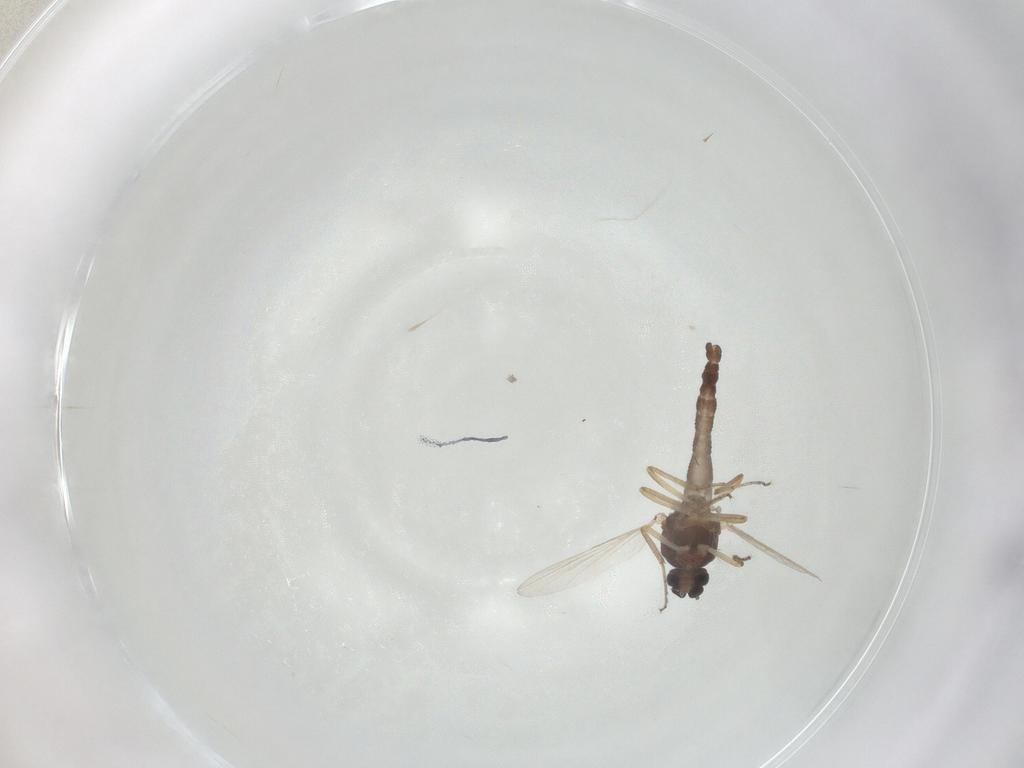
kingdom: Animalia
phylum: Arthropoda
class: Insecta
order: Diptera
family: Ceratopogonidae
